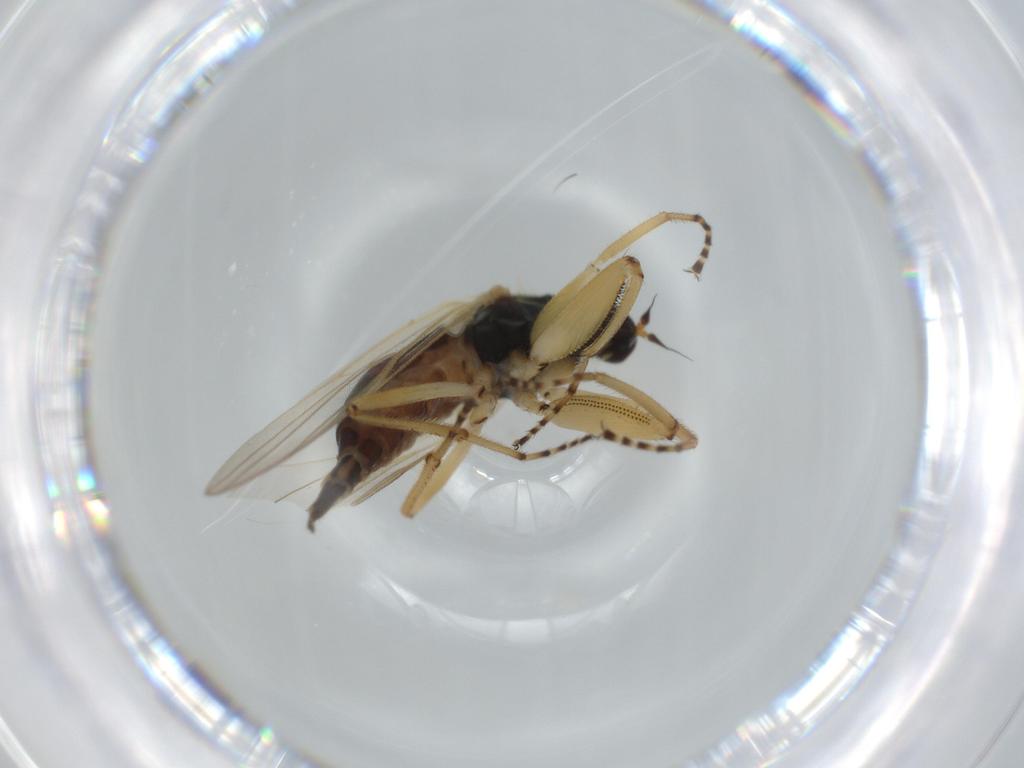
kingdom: Animalia
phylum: Arthropoda
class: Insecta
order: Diptera
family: Hybotidae
